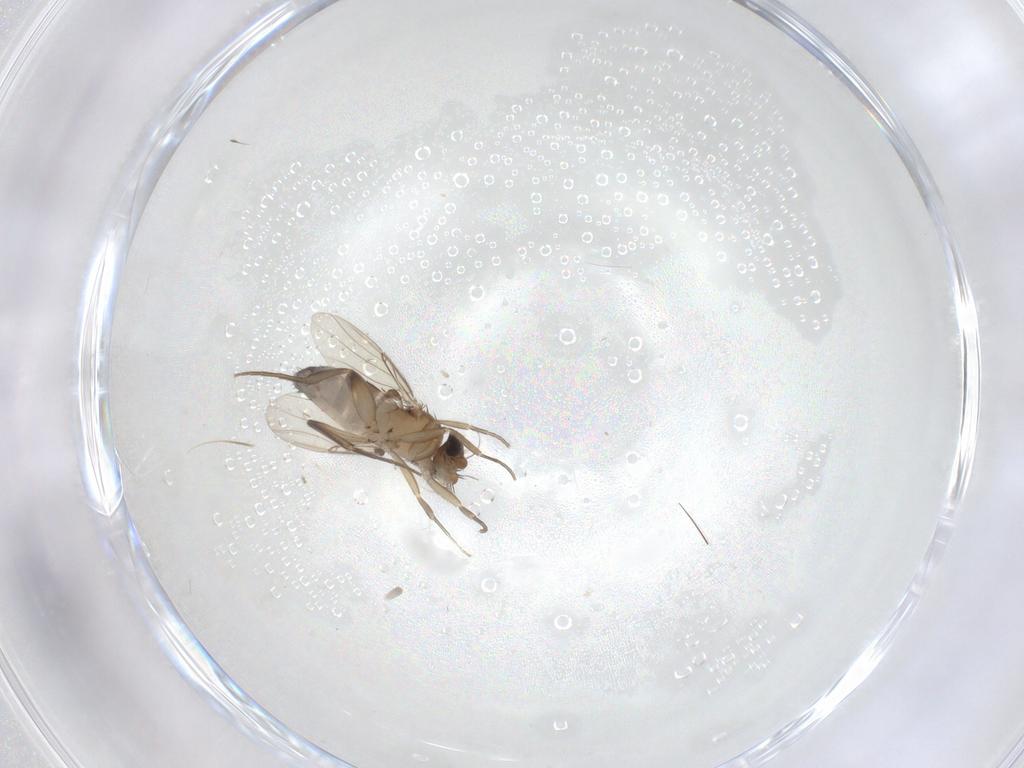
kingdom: Animalia
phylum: Arthropoda
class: Insecta
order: Diptera
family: Phoridae
